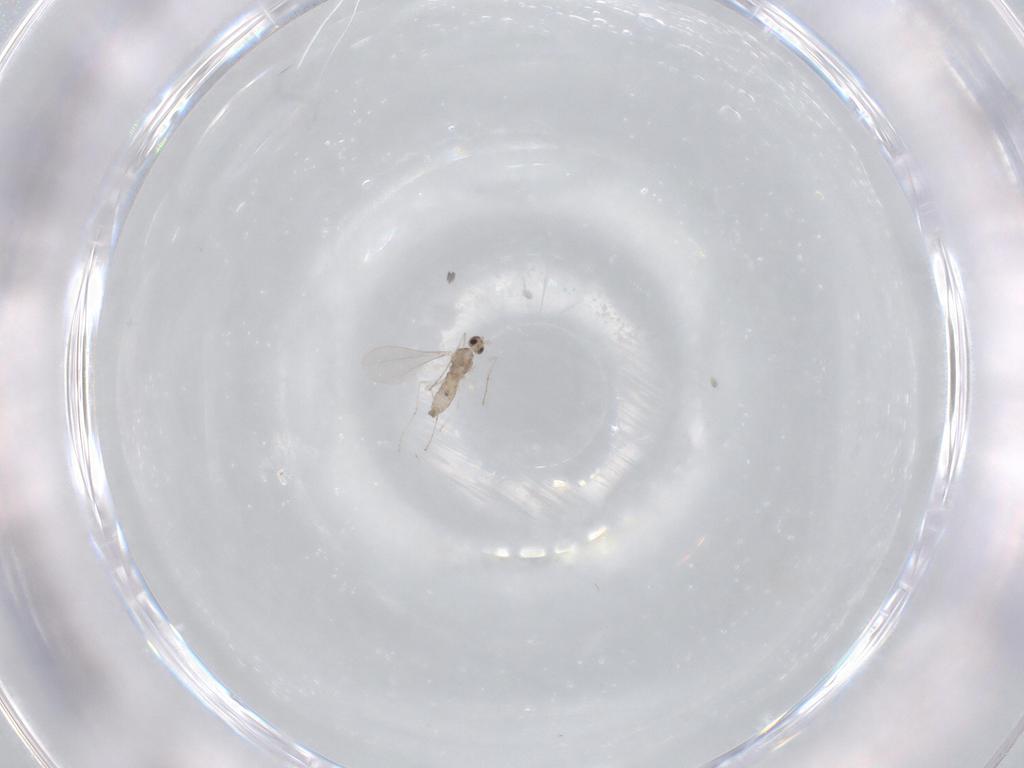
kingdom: Animalia
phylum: Arthropoda
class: Insecta
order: Diptera
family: Cecidomyiidae
